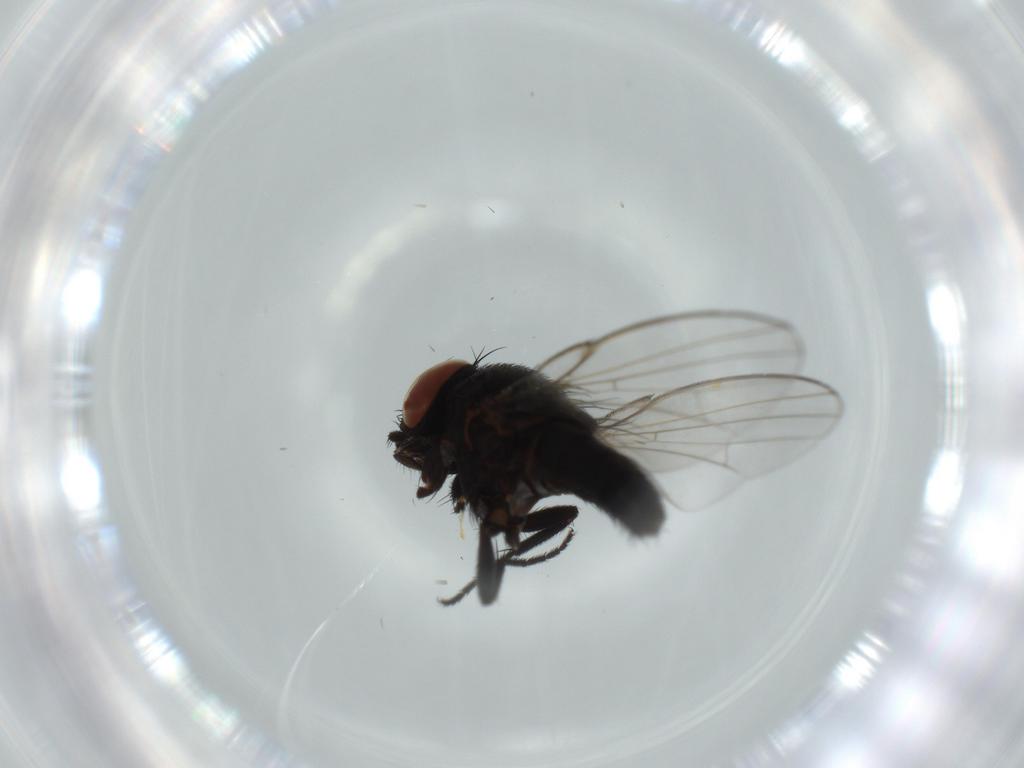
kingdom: Animalia
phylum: Arthropoda
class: Insecta
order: Diptera
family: Phoridae
